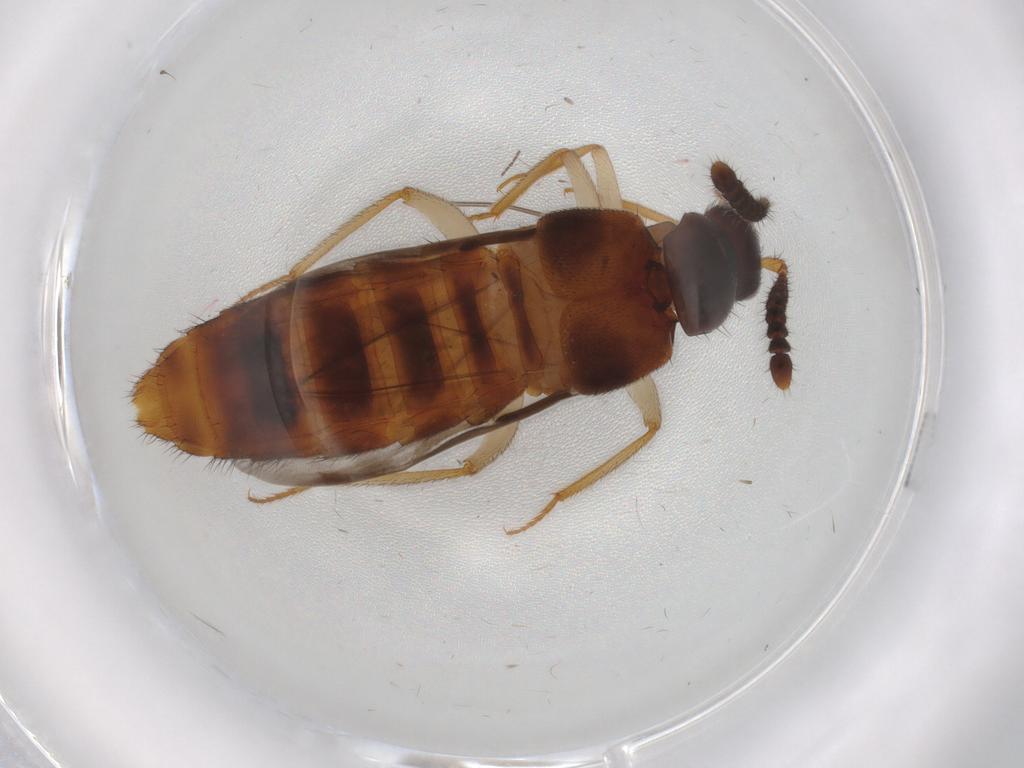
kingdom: Animalia
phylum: Arthropoda
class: Insecta
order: Coleoptera
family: Staphylinidae
